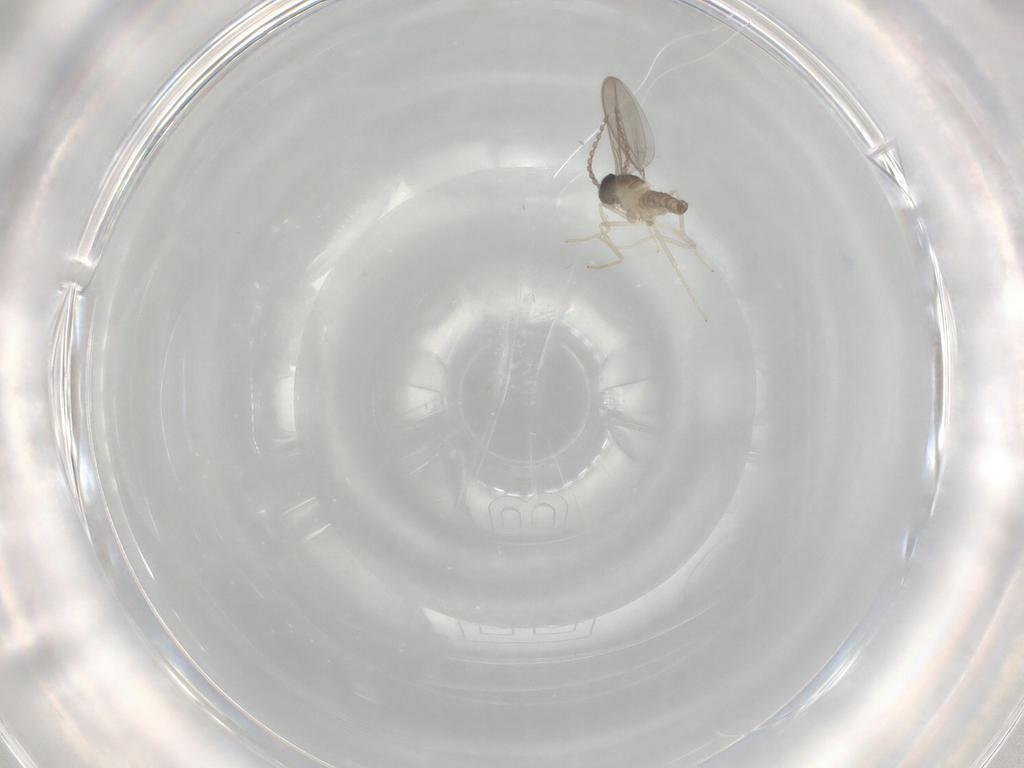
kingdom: Animalia
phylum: Arthropoda
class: Insecta
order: Diptera
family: Phoridae
